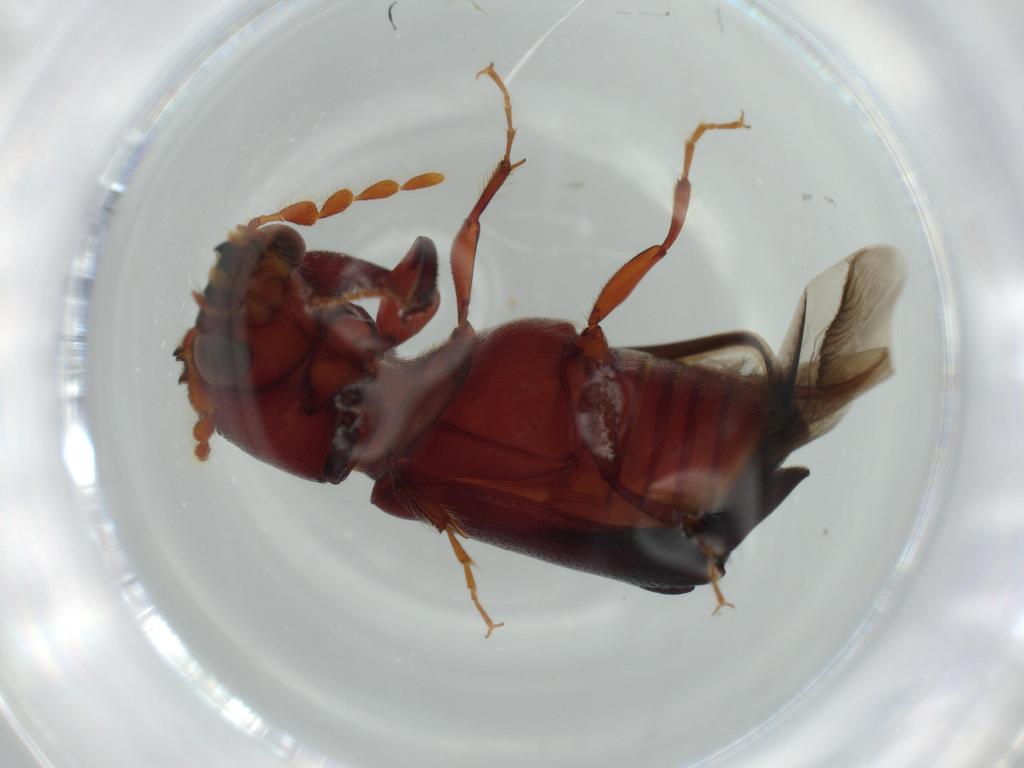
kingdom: Animalia
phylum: Arthropoda
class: Insecta
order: Coleoptera
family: Bostrichidae
